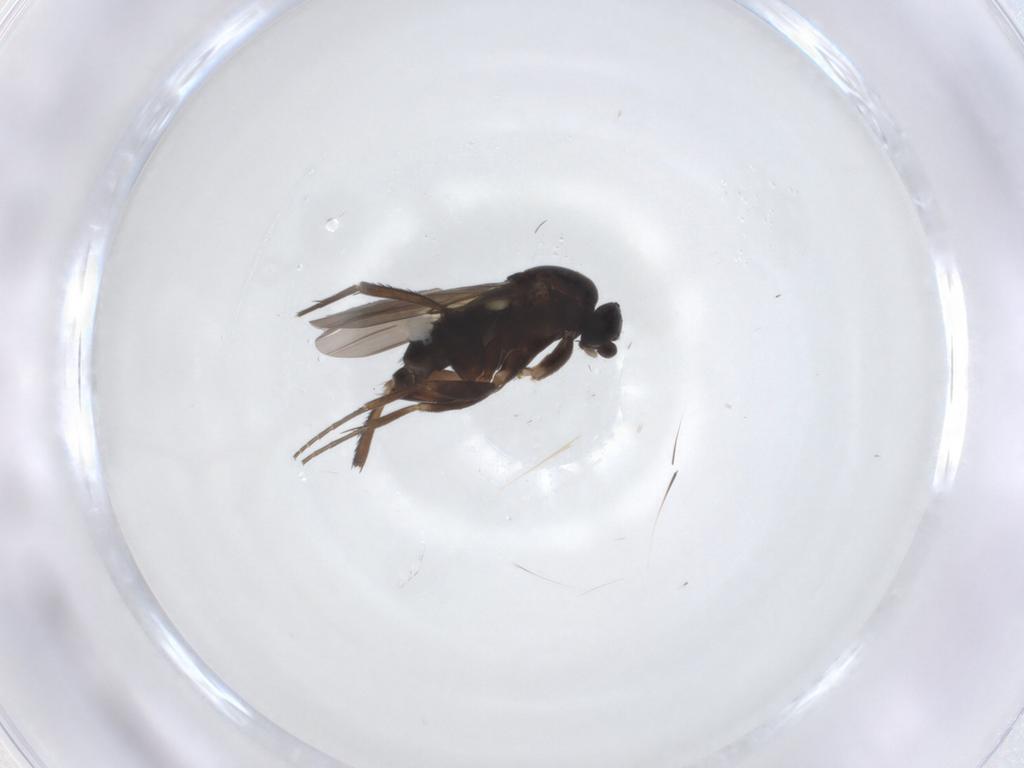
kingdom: Animalia
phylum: Arthropoda
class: Insecta
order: Diptera
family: Phoridae
